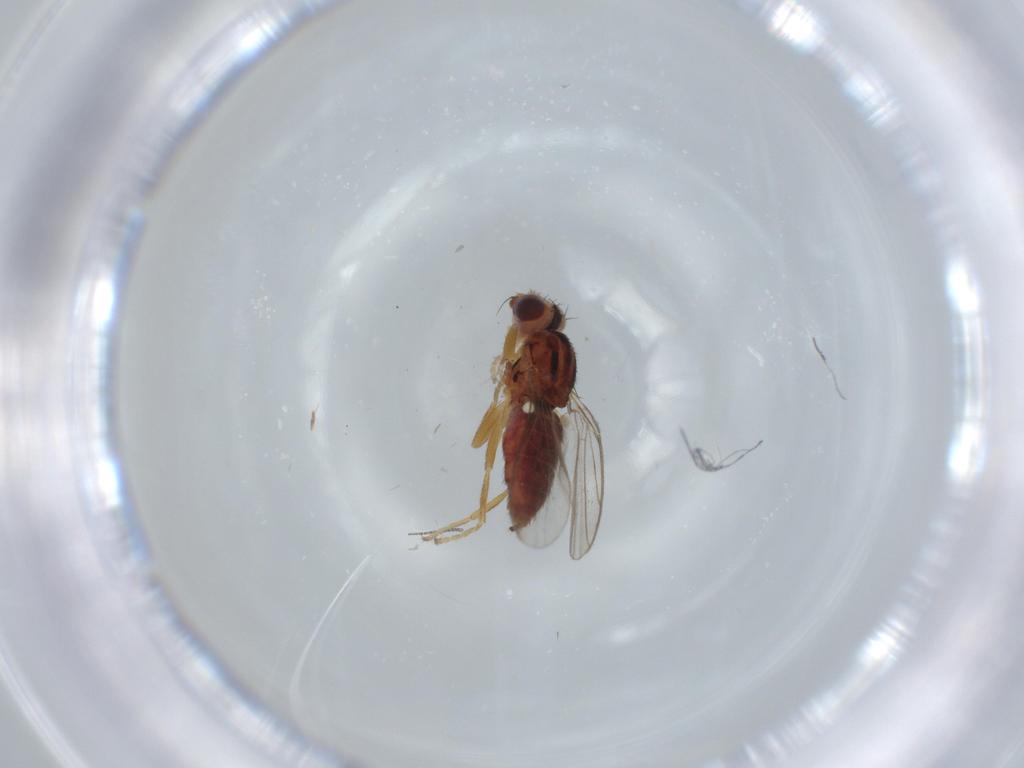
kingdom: Animalia
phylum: Arthropoda
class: Insecta
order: Diptera
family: Chloropidae
